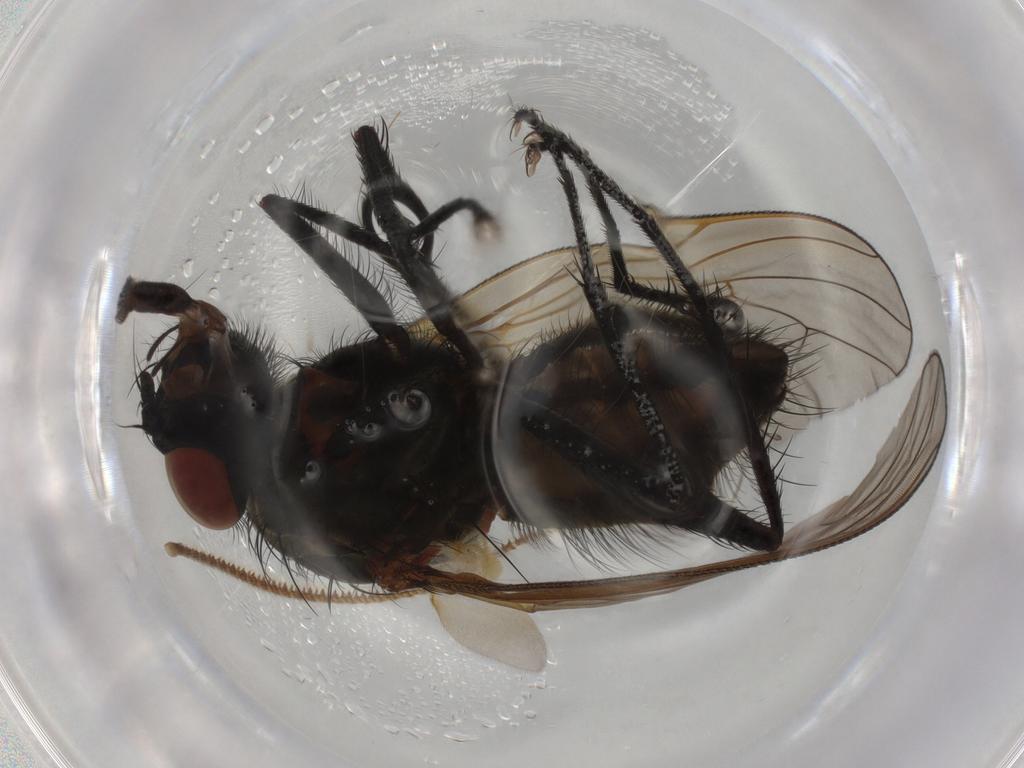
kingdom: Animalia
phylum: Arthropoda
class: Insecta
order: Diptera
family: Anthomyiidae
